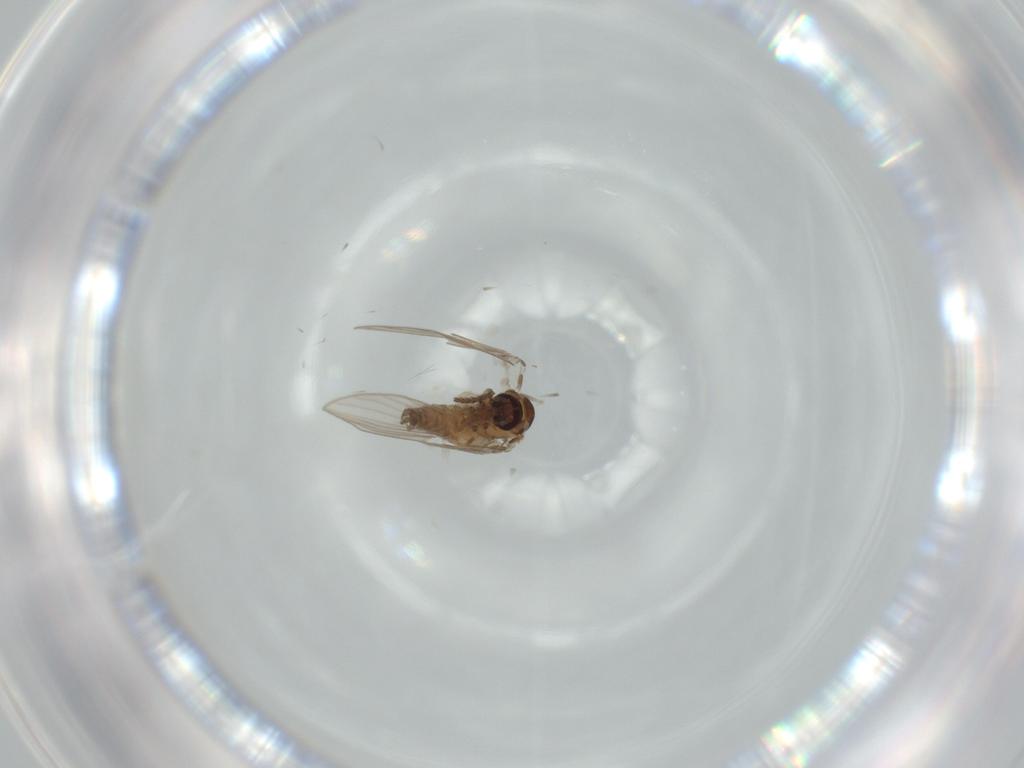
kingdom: Animalia
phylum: Arthropoda
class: Insecta
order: Diptera
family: Psychodidae
